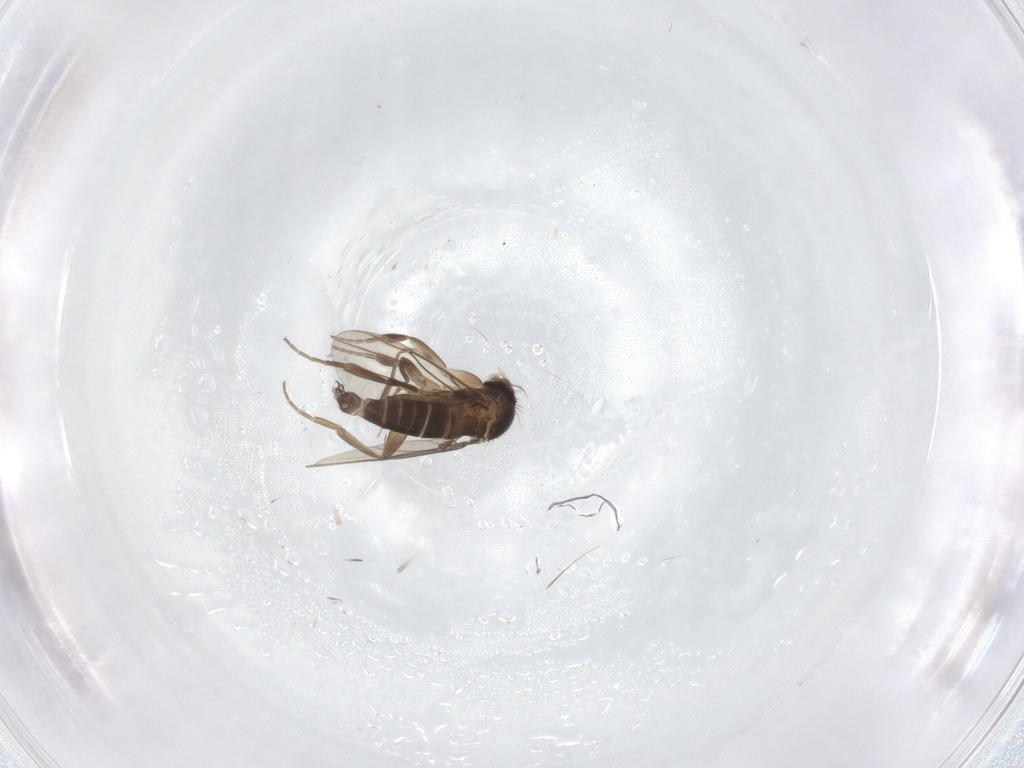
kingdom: Animalia
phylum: Arthropoda
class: Insecta
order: Diptera
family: Phoridae
